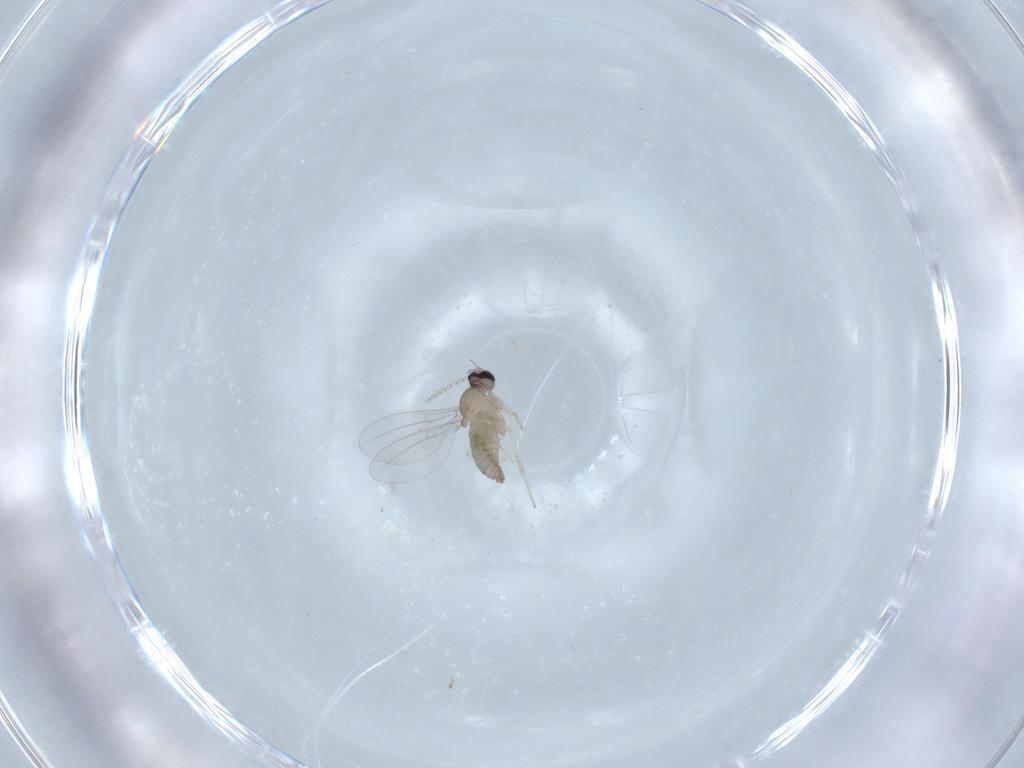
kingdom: Animalia
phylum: Arthropoda
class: Insecta
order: Diptera
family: Cecidomyiidae
